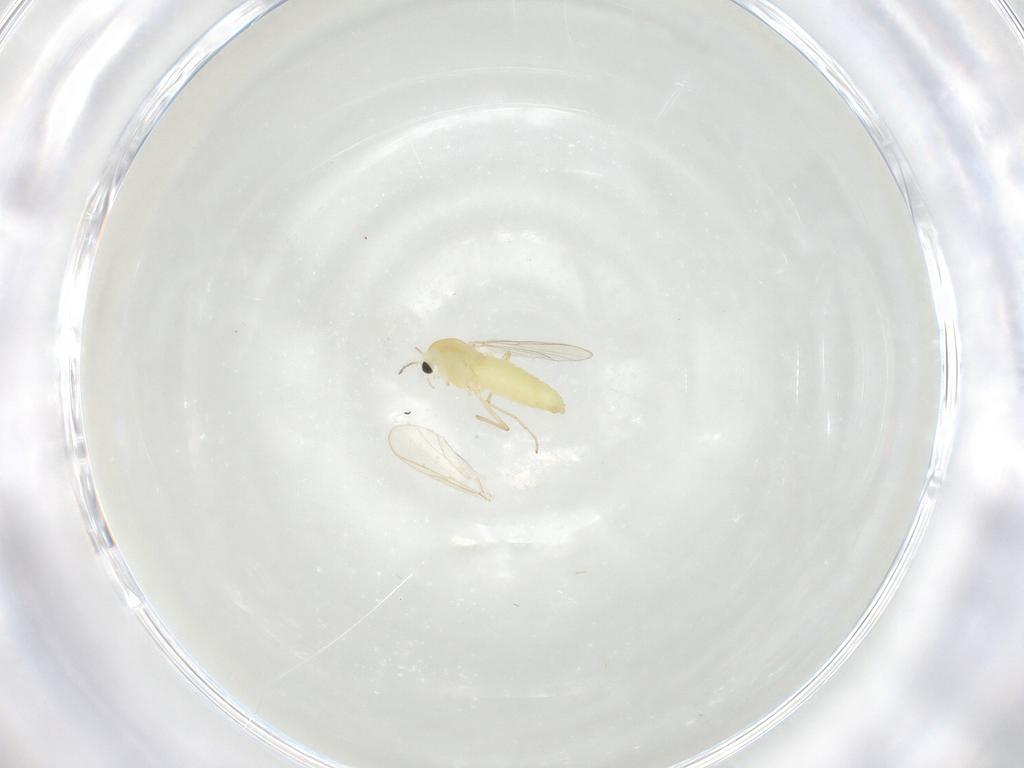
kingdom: Animalia
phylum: Arthropoda
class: Insecta
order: Diptera
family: Chironomidae
